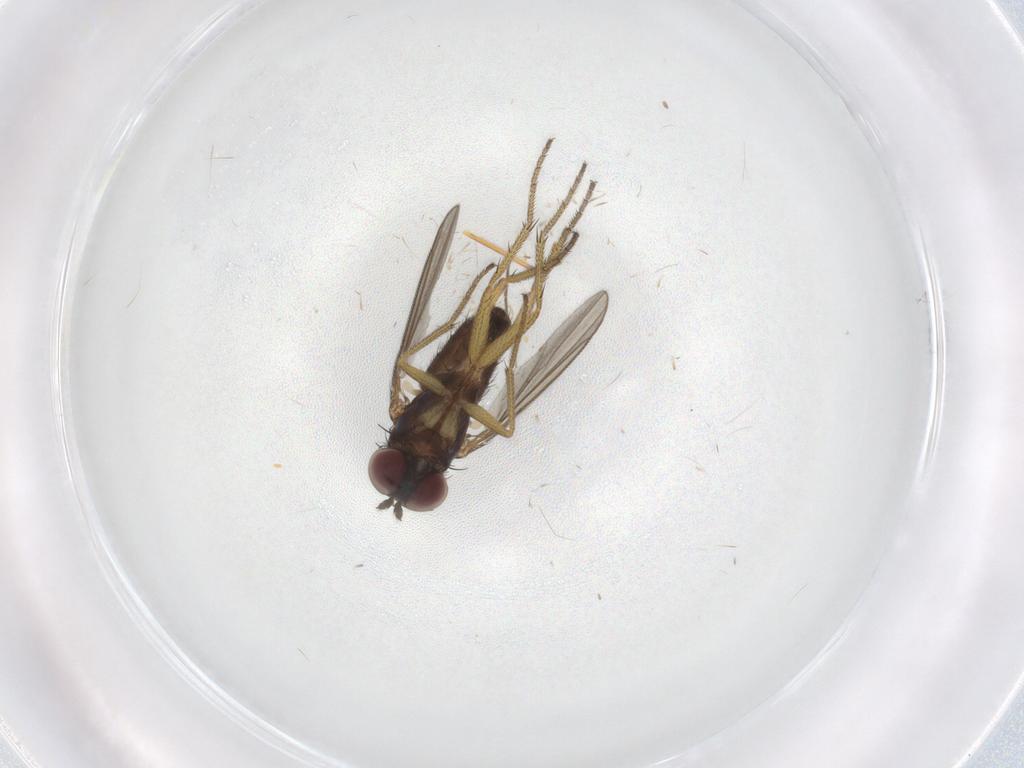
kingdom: Animalia
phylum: Arthropoda
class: Insecta
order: Diptera
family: Dolichopodidae
